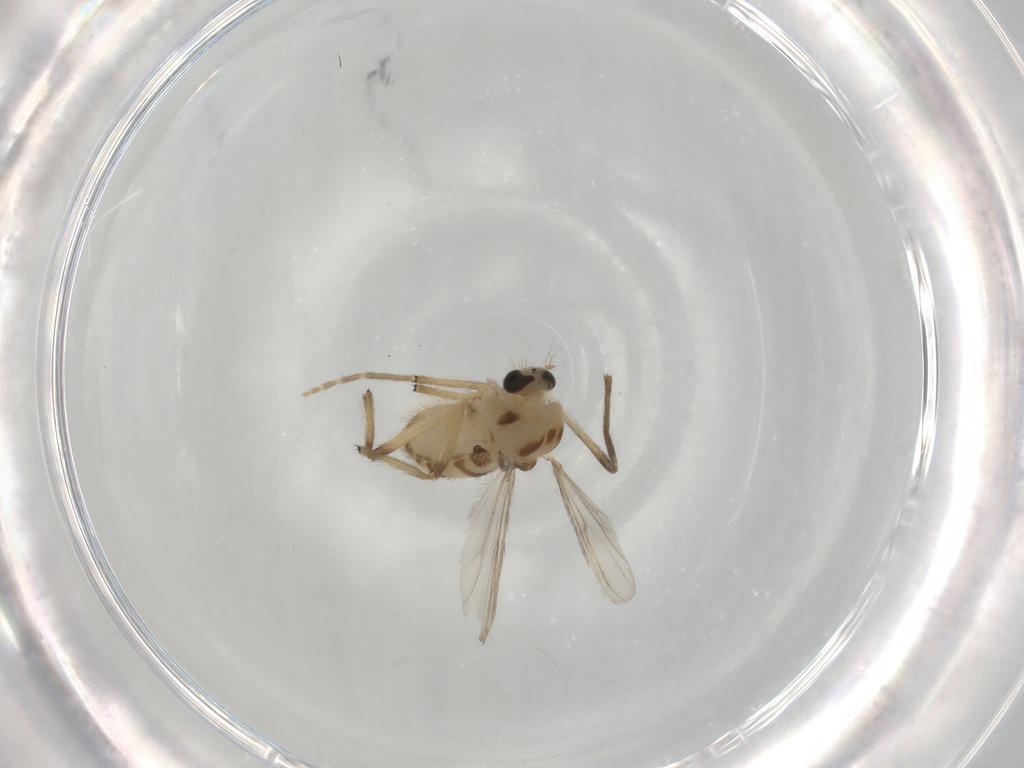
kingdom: Animalia
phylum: Arthropoda
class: Insecta
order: Diptera
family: Chironomidae
